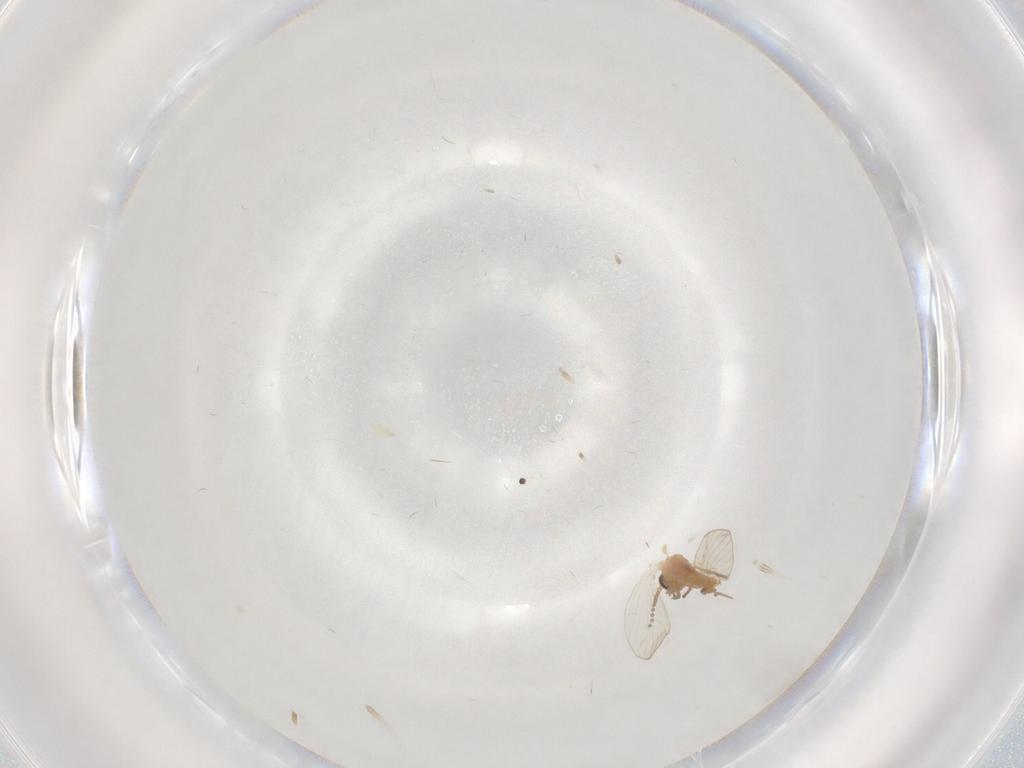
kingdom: Animalia
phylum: Arthropoda
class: Insecta
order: Diptera
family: Psychodidae
